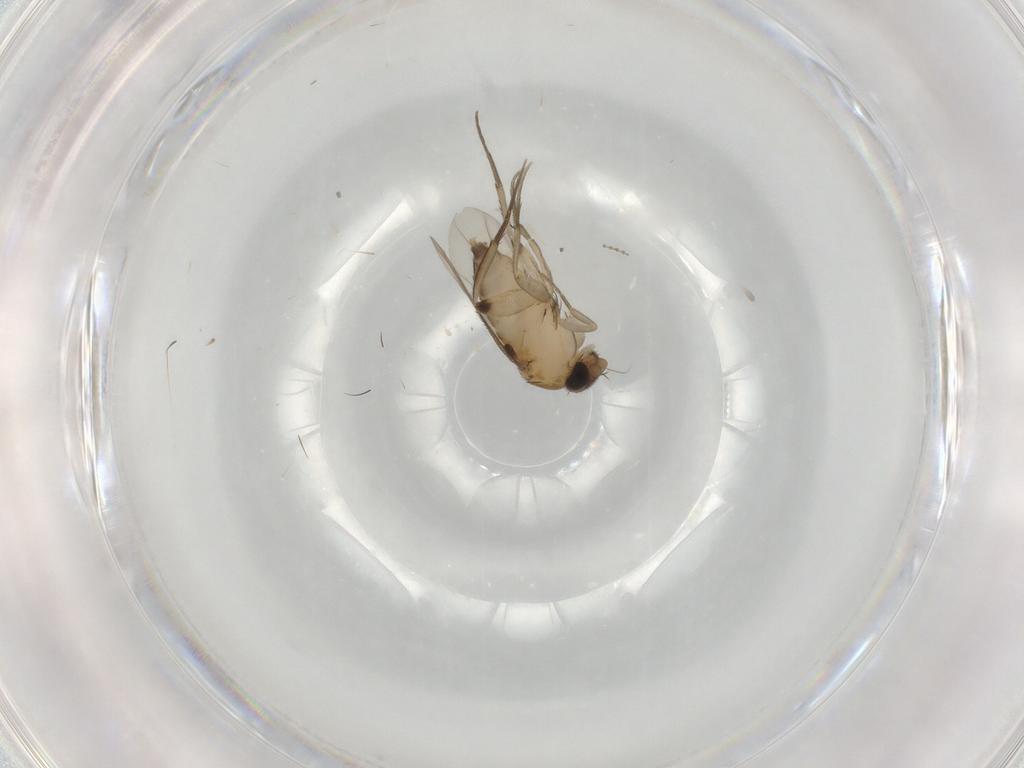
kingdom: Animalia
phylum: Arthropoda
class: Insecta
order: Diptera
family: Phoridae
